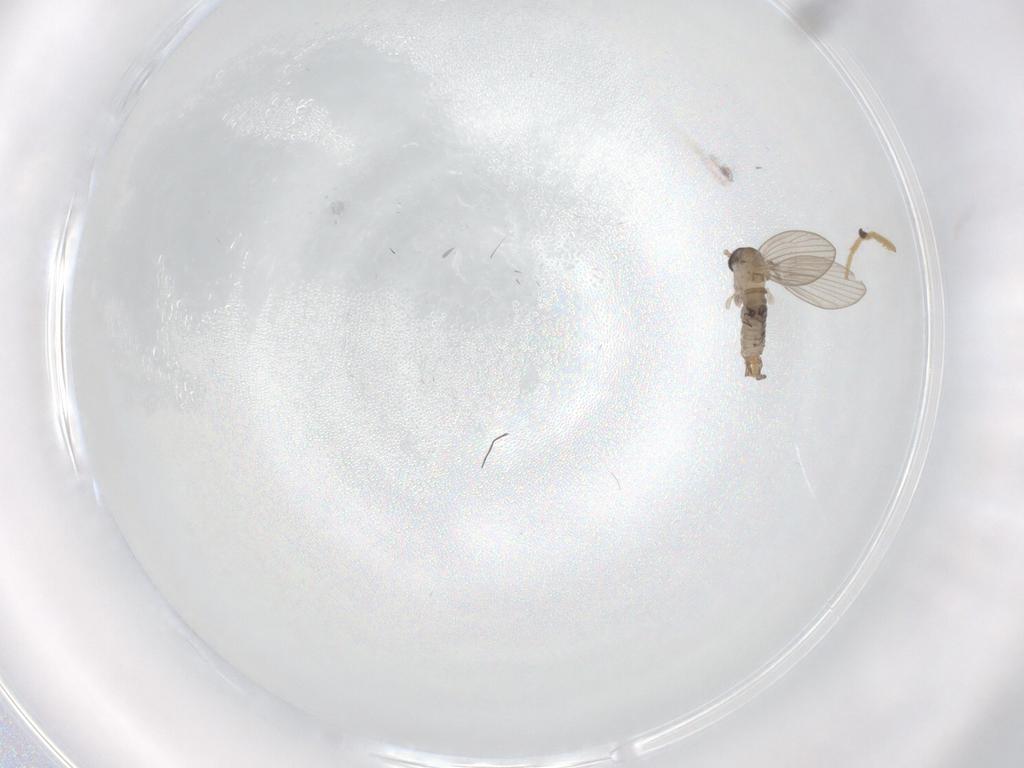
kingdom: Animalia
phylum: Arthropoda
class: Insecta
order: Diptera
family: Psychodidae
